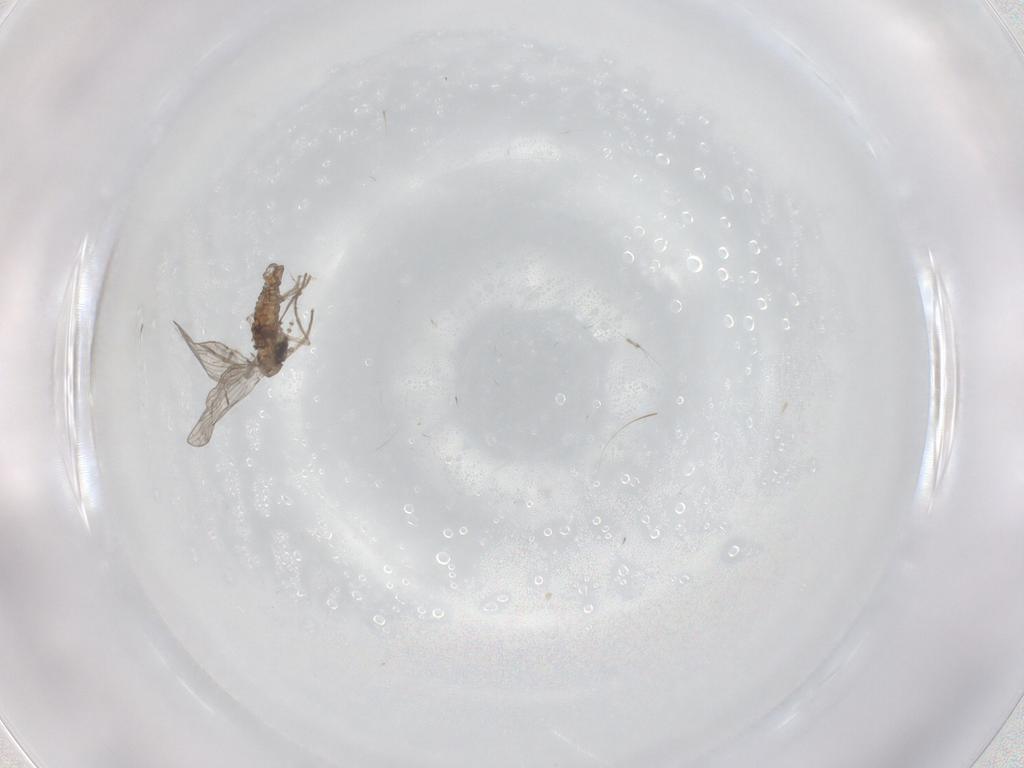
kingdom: Animalia
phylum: Arthropoda
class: Insecta
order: Diptera
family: Psychodidae
